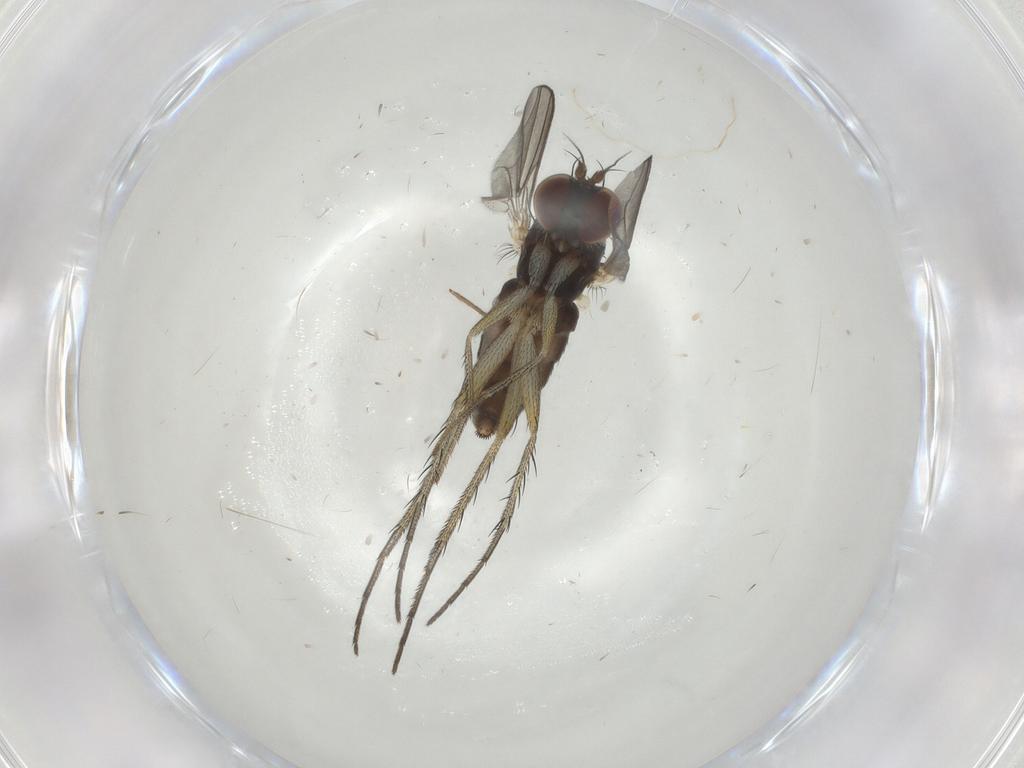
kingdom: Animalia
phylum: Arthropoda
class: Insecta
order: Diptera
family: Dolichopodidae
